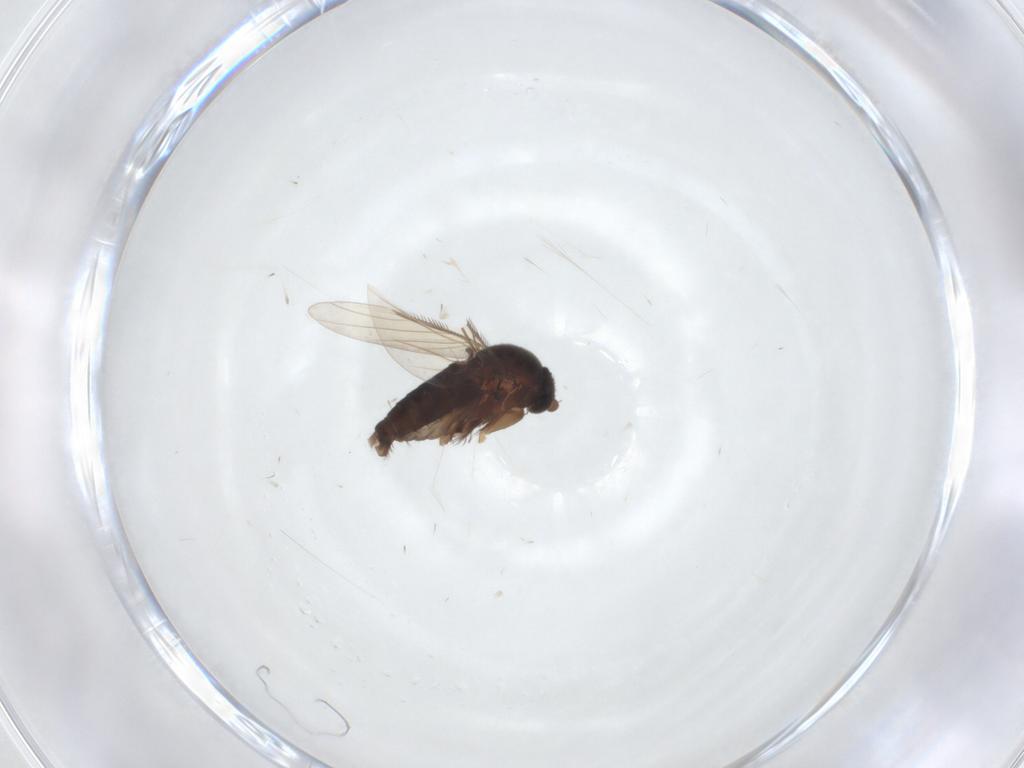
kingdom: Animalia
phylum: Arthropoda
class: Insecta
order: Diptera
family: Phoridae
